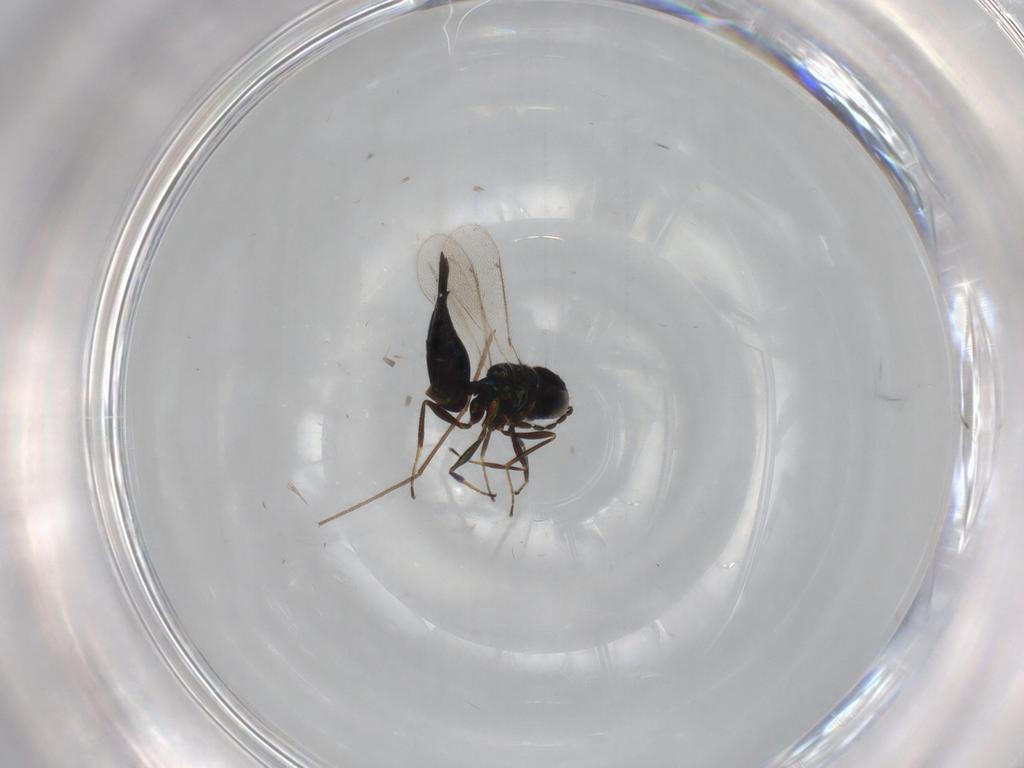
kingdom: Animalia
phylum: Arthropoda
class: Insecta
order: Hymenoptera
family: Eulophidae
